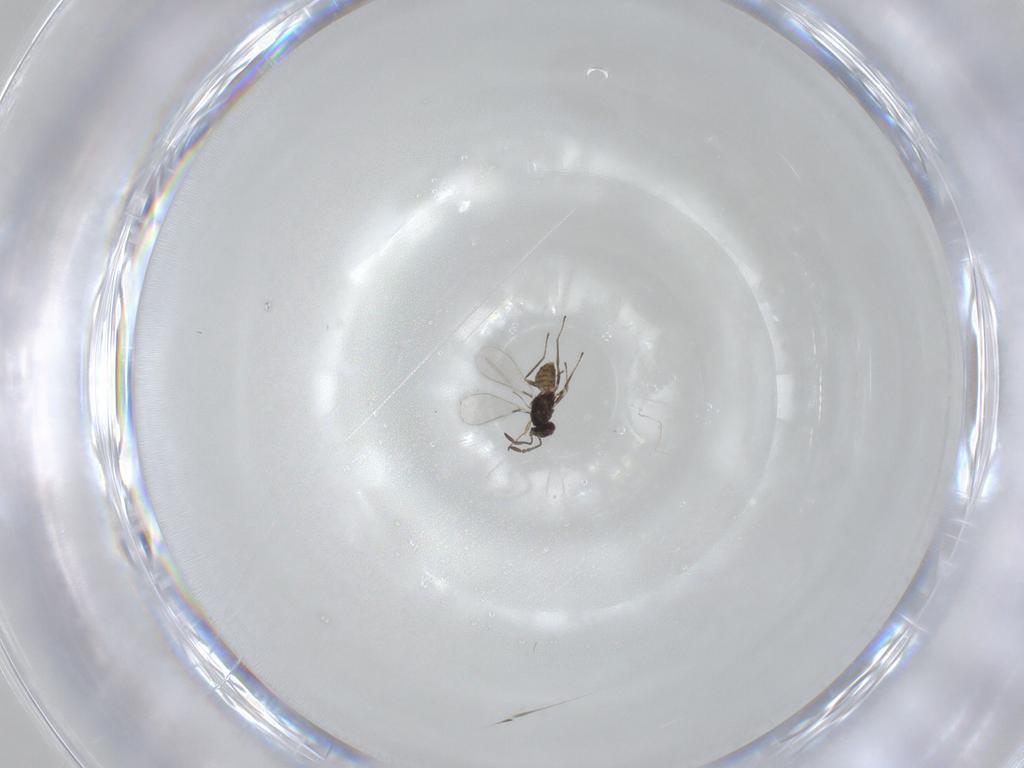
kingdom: Animalia
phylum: Arthropoda
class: Insecta
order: Hymenoptera
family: Mymaridae
